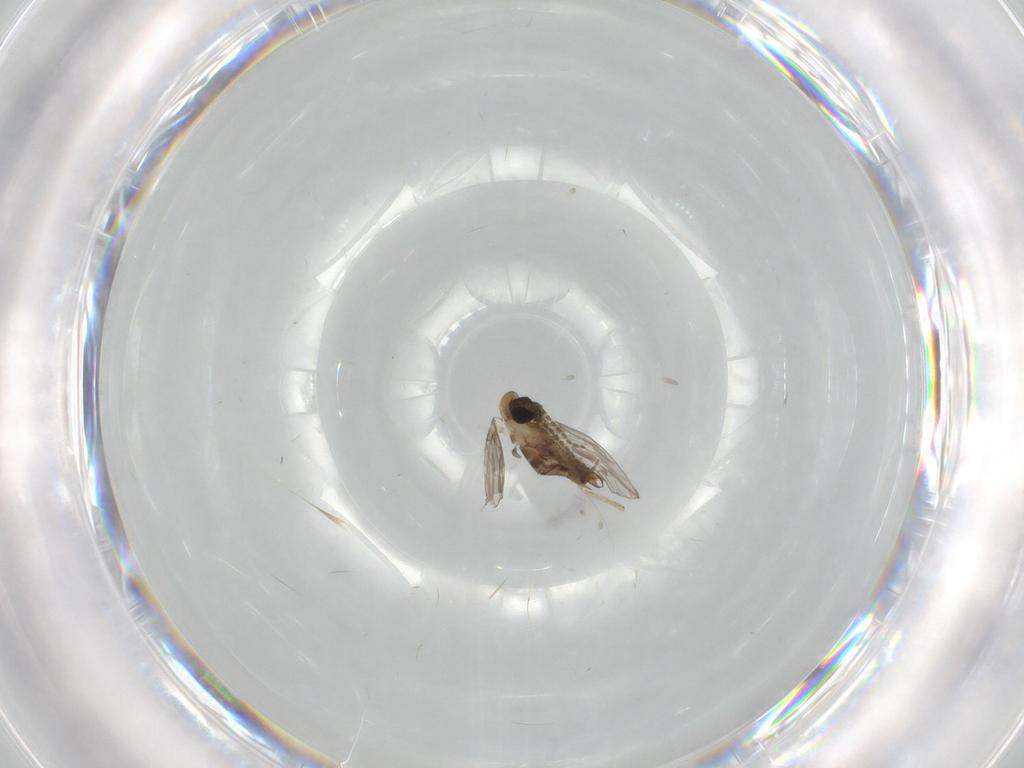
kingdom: Animalia
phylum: Arthropoda
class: Insecta
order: Diptera
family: Psychodidae
